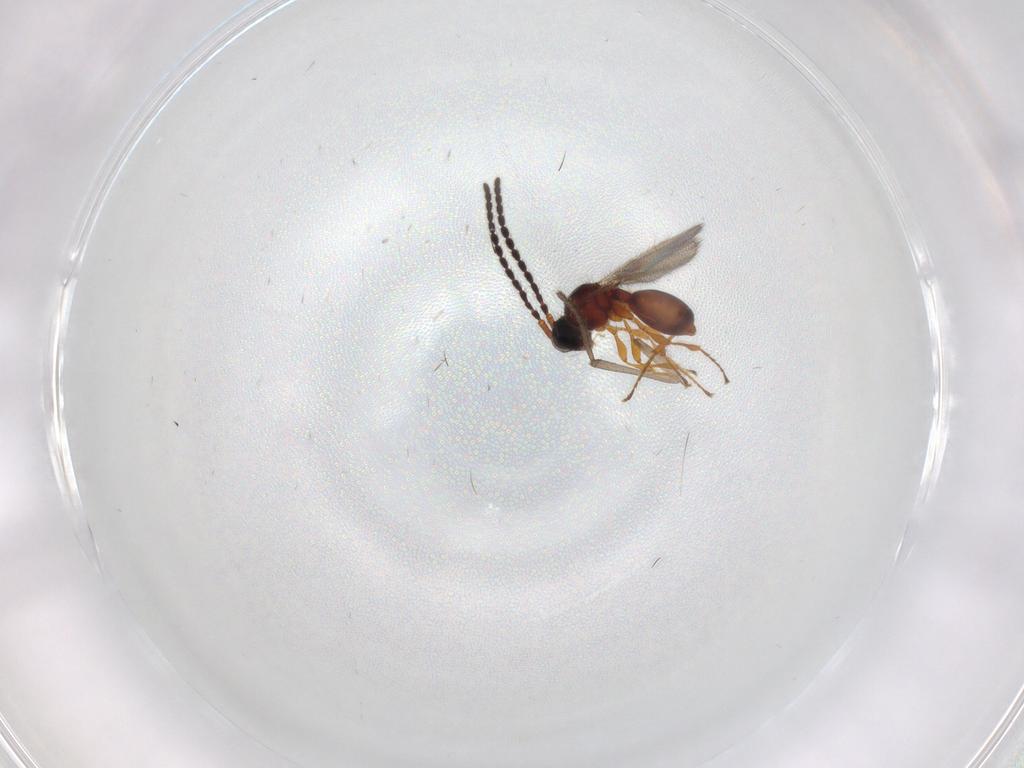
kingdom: Animalia
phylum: Arthropoda
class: Insecta
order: Hymenoptera
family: Diapriidae
